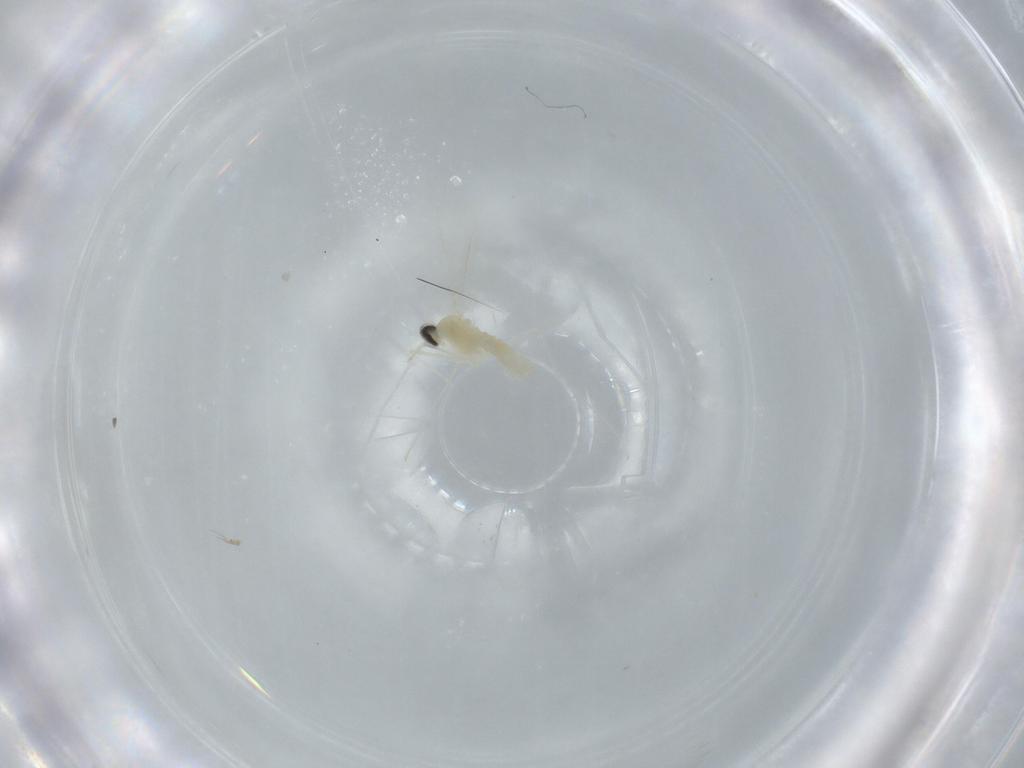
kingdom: Animalia
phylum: Arthropoda
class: Insecta
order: Diptera
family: Cecidomyiidae
